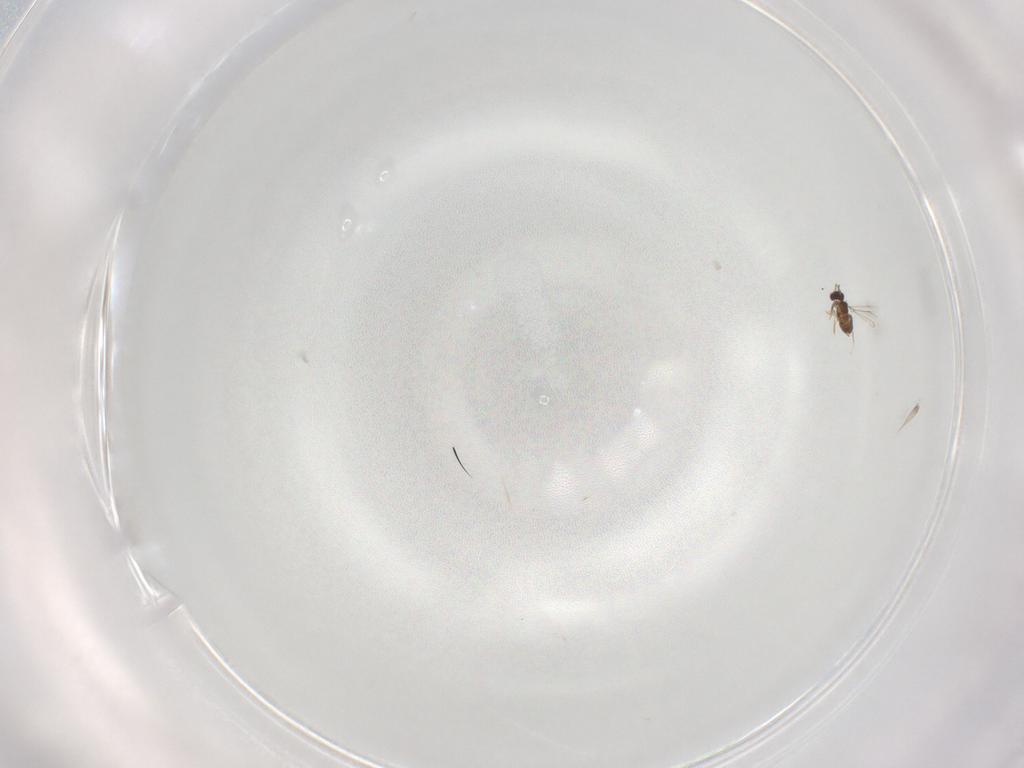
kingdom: Animalia
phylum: Arthropoda
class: Insecta
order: Hymenoptera
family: Mymaridae
